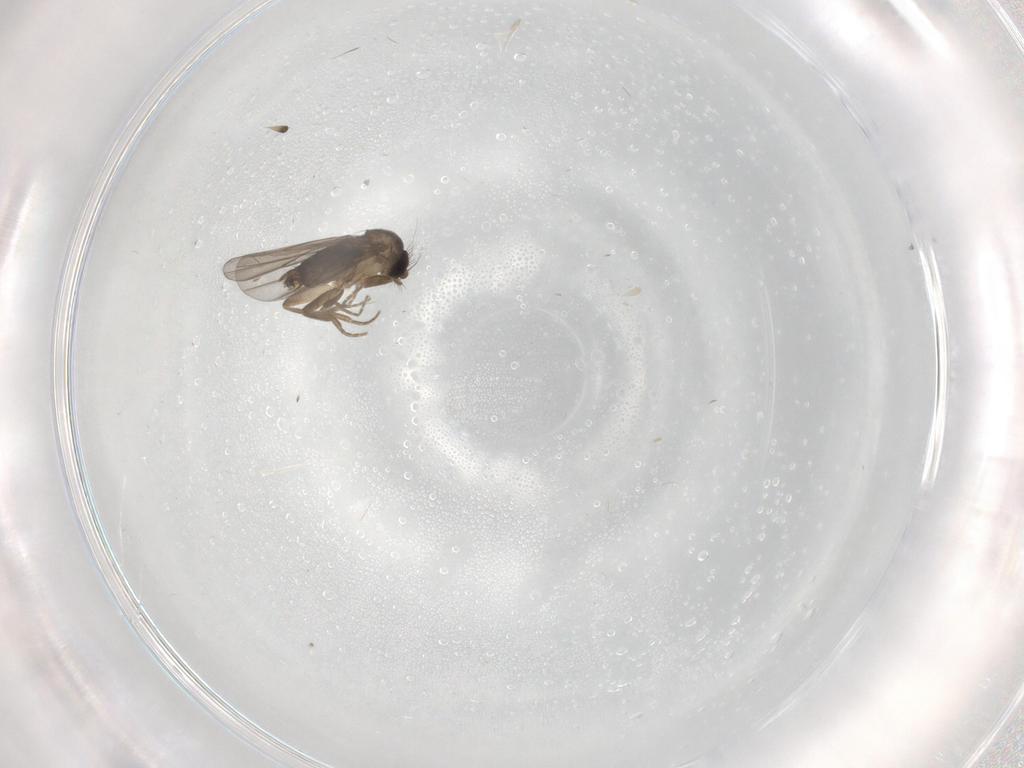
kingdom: Animalia
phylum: Arthropoda
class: Insecta
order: Diptera
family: Phoridae
